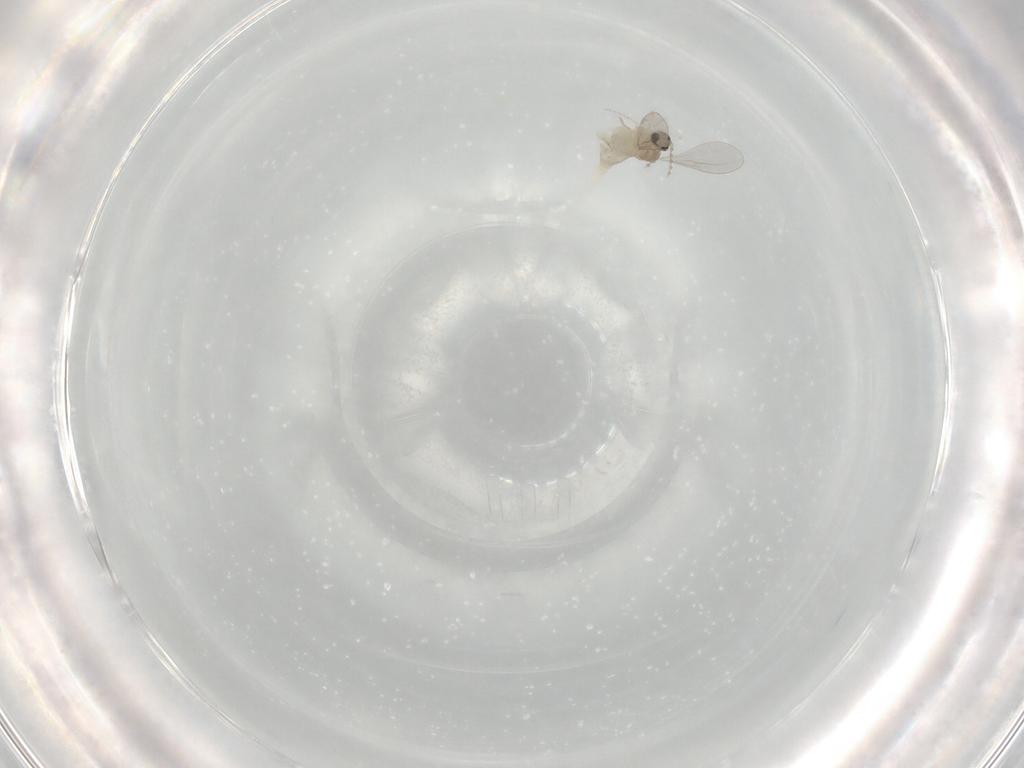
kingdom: Animalia
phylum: Arthropoda
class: Insecta
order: Diptera
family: Cecidomyiidae
